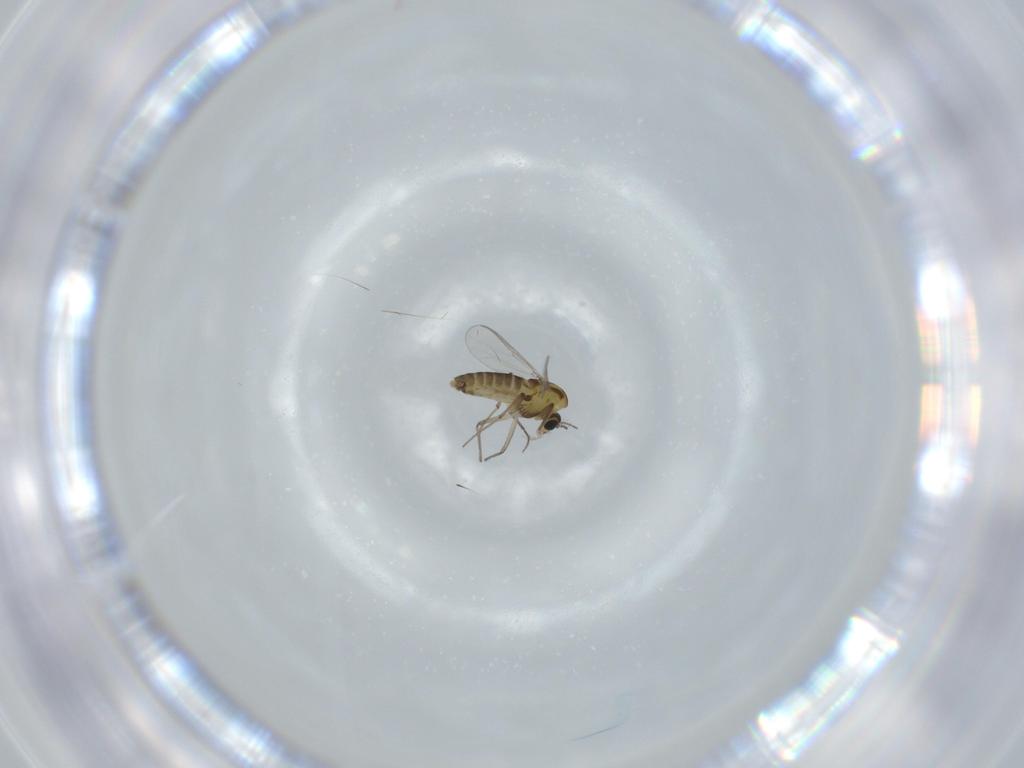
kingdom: Animalia
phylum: Arthropoda
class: Insecta
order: Diptera
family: Chironomidae
